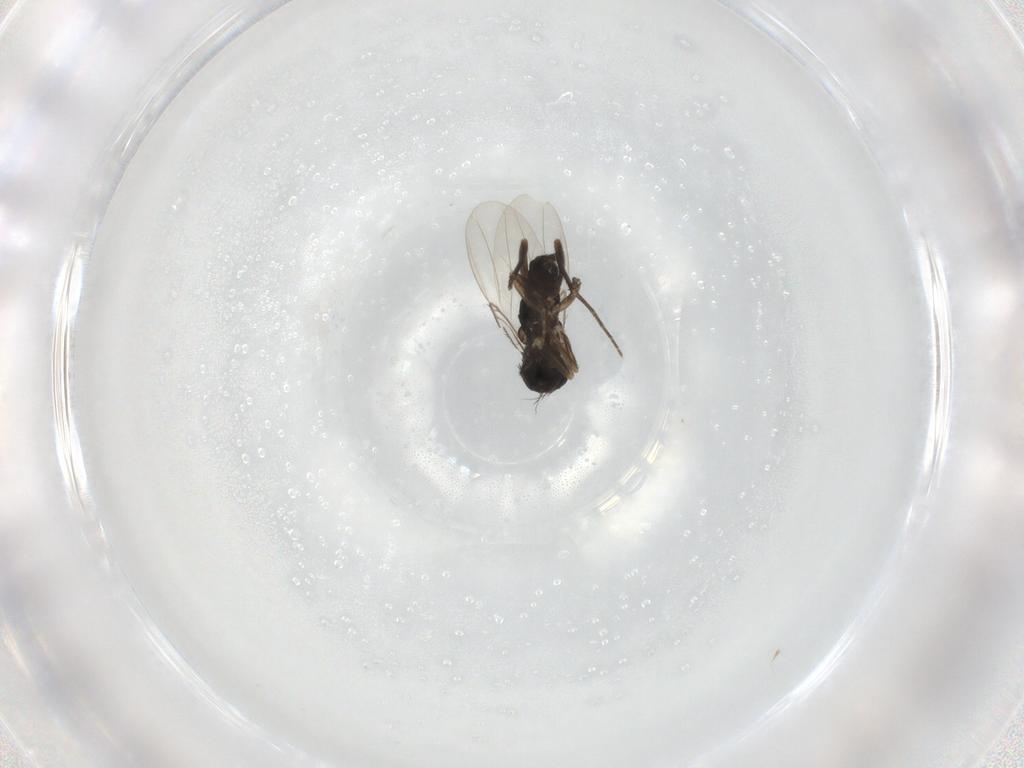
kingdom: Animalia
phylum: Arthropoda
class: Insecta
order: Diptera
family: Phoridae
